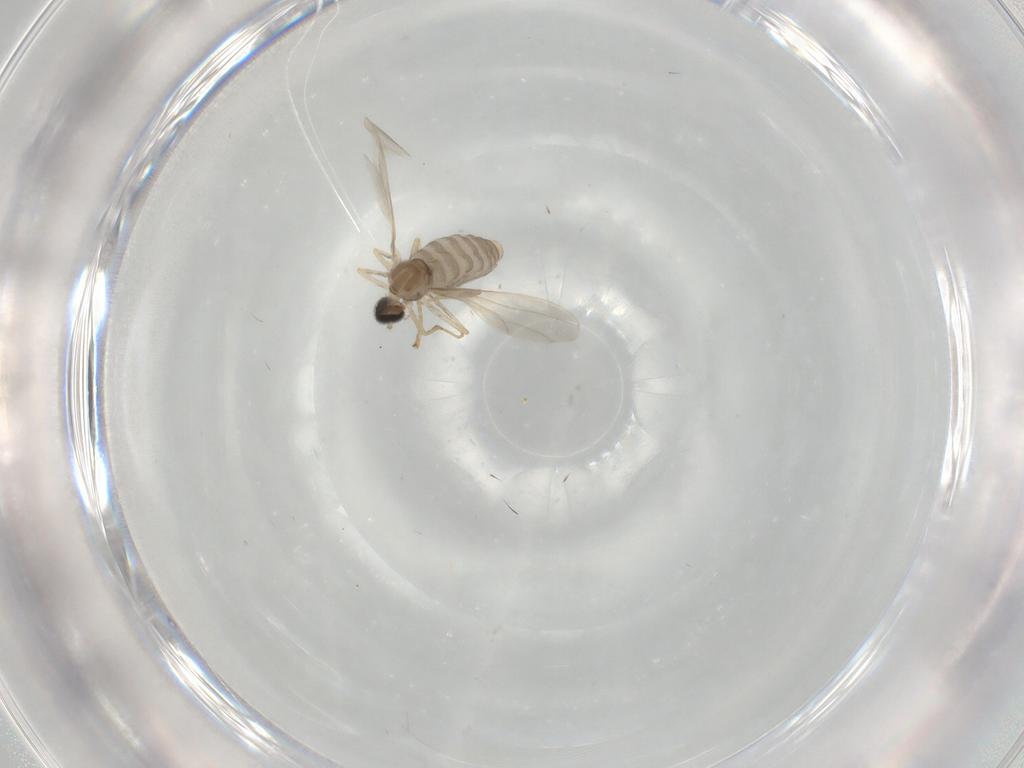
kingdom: Animalia
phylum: Arthropoda
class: Insecta
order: Diptera
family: Cecidomyiidae
